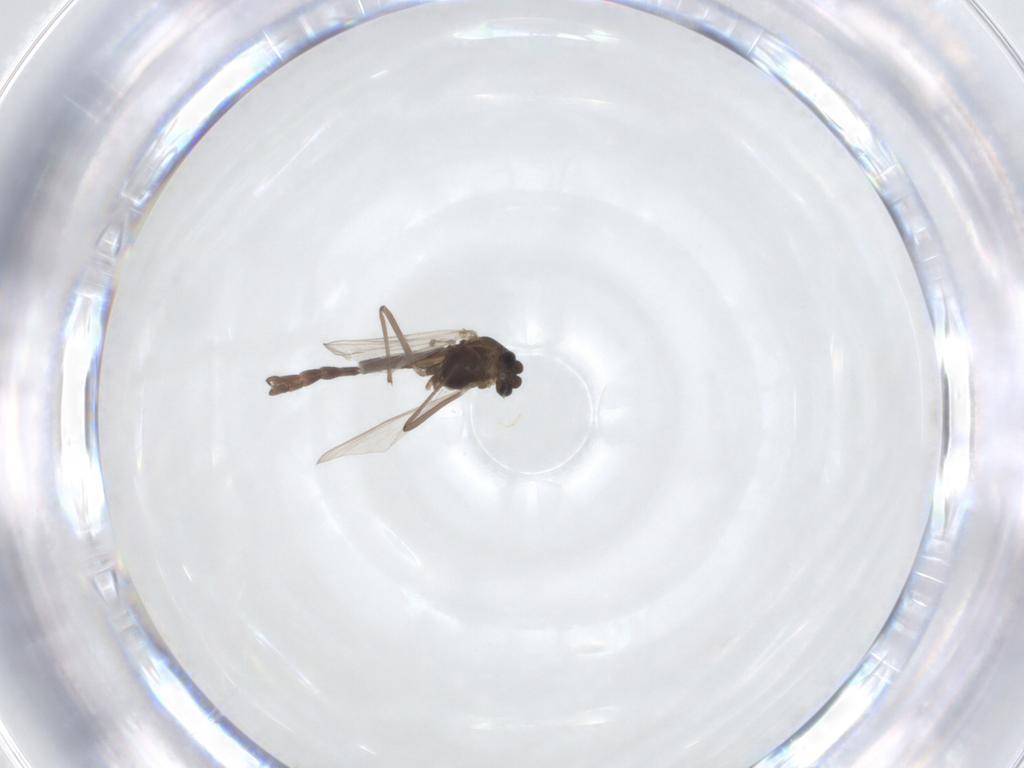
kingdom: Animalia
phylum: Arthropoda
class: Insecta
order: Diptera
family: Chironomidae
